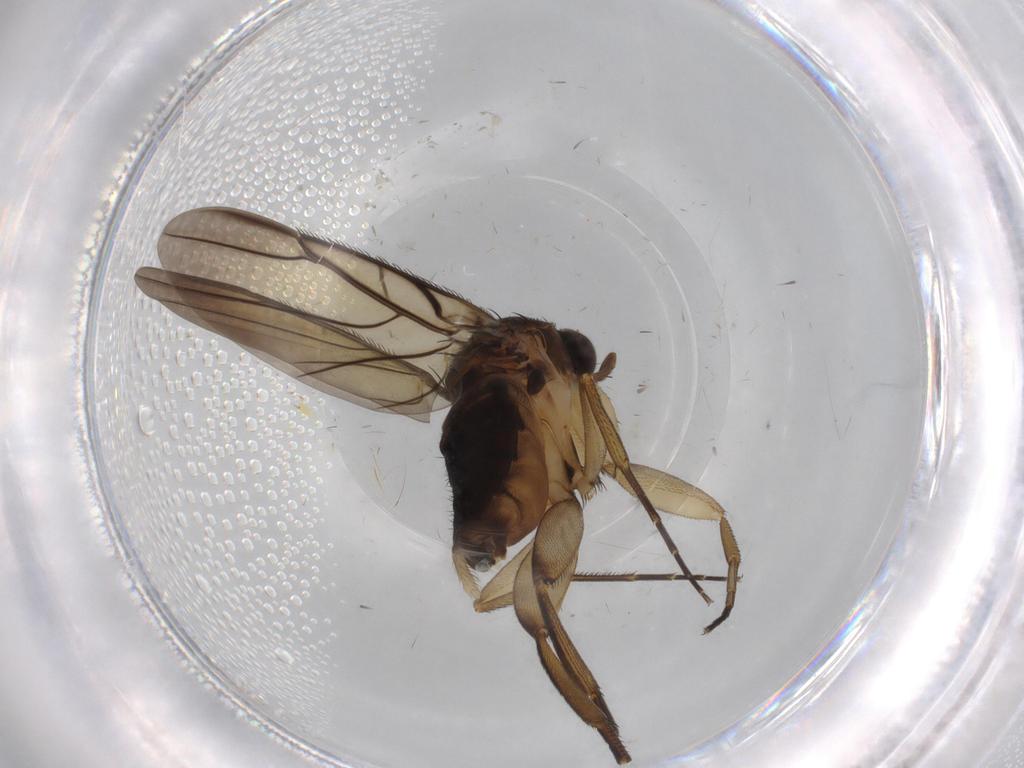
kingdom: Animalia
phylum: Arthropoda
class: Insecta
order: Diptera
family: Phoridae
